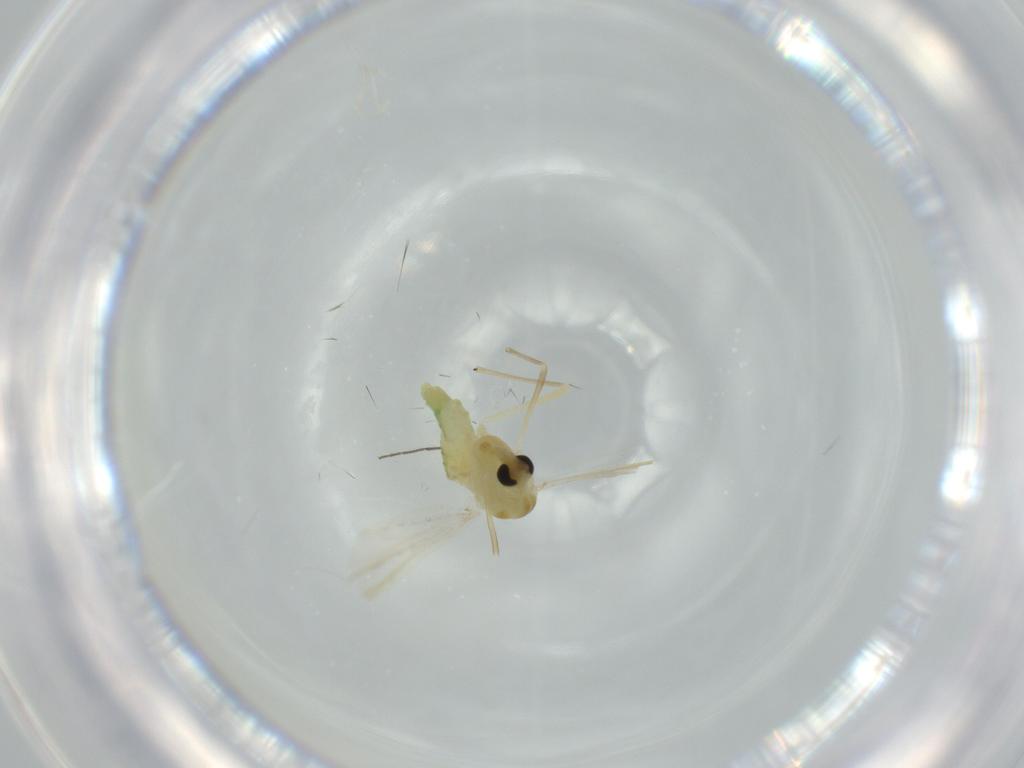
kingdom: Animalia
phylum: Arthropoda
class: Insecta
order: Diptera
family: Chironomidae
